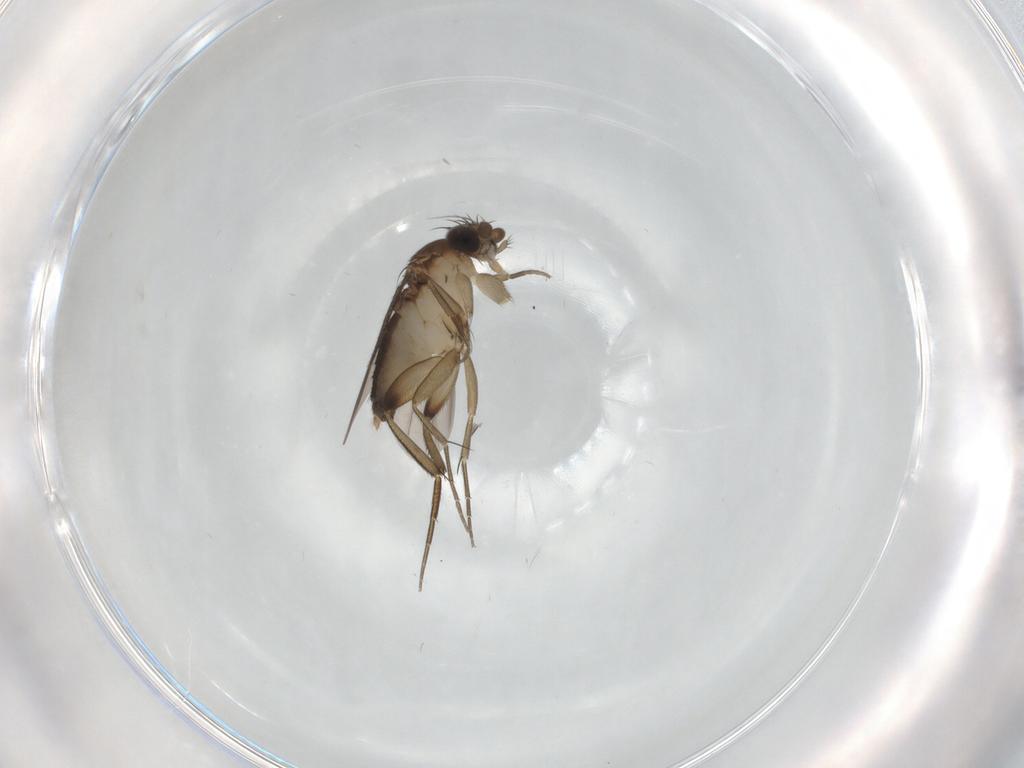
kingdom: Animalia
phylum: Arthropoda
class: Insecta
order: Diptera
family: Phoridae
